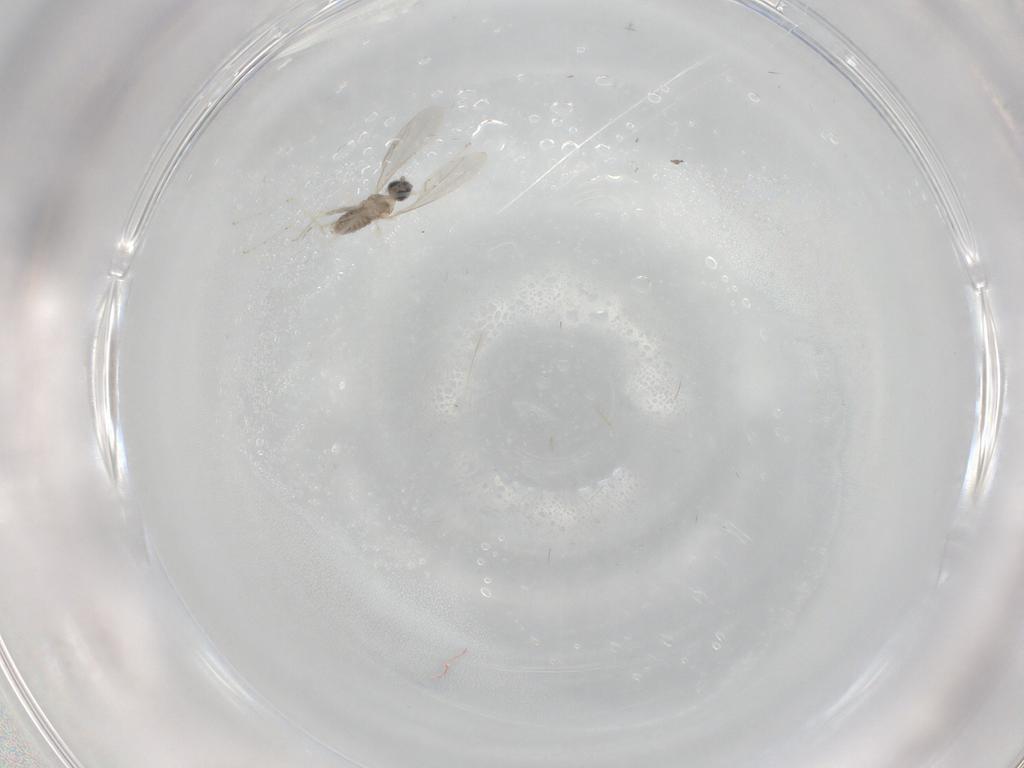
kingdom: Animalia
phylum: Arthropoda
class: Insecta
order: Diptera
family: Cecidomyiidae
